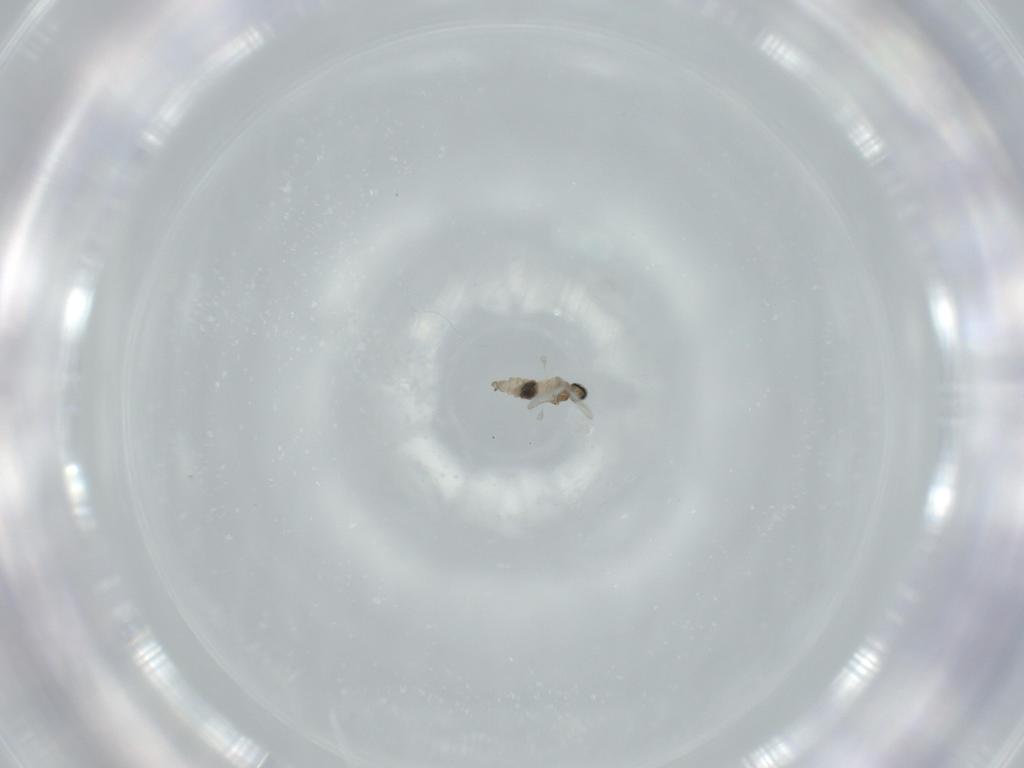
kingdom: Animalia
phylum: Arthropoda
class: Insecta
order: Diptera
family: Cecidomyiidae
